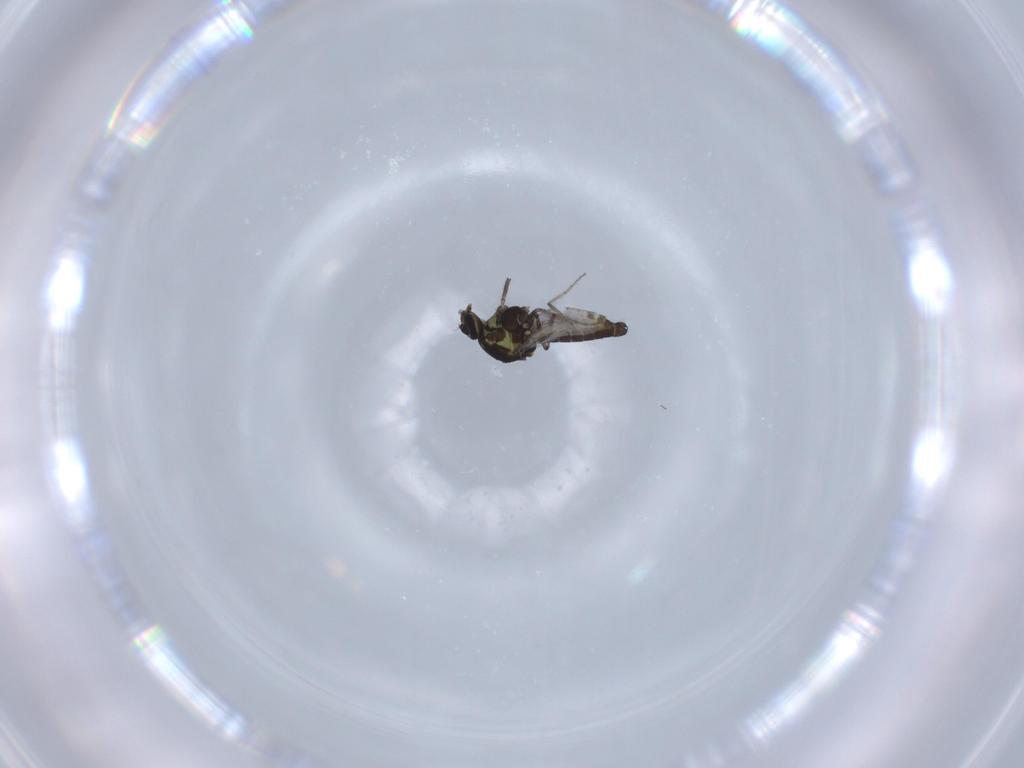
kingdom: Animalia
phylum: Arthropoda
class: Insecta
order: Diptera
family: Ceratopogonidae
